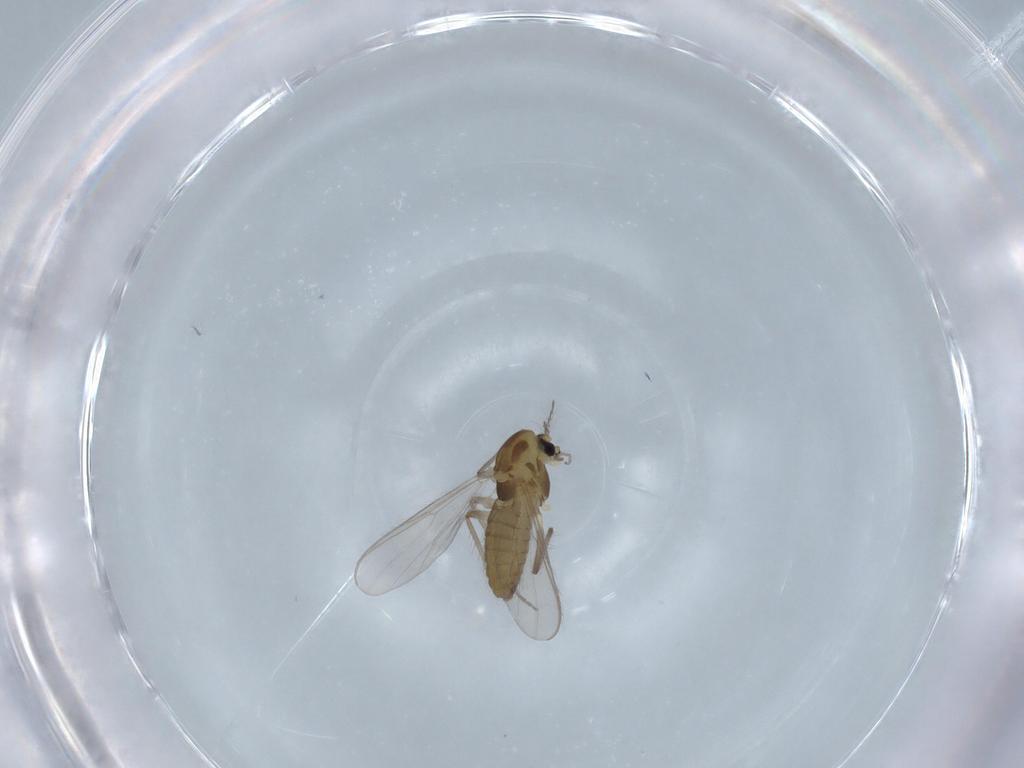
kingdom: Animalia
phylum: Arthropoda
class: Insecta
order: Diptera
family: Chironomidae
